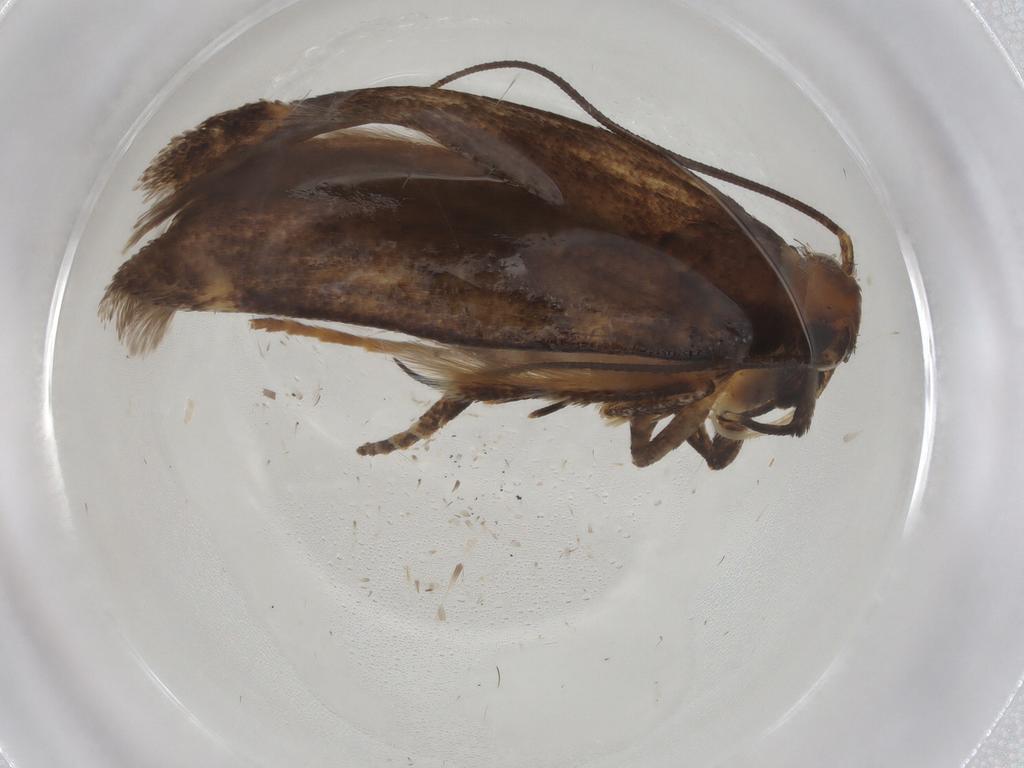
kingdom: Animalia
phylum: Arthropoda
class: Insecta
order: Lepidoptera
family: Gelechiidae
